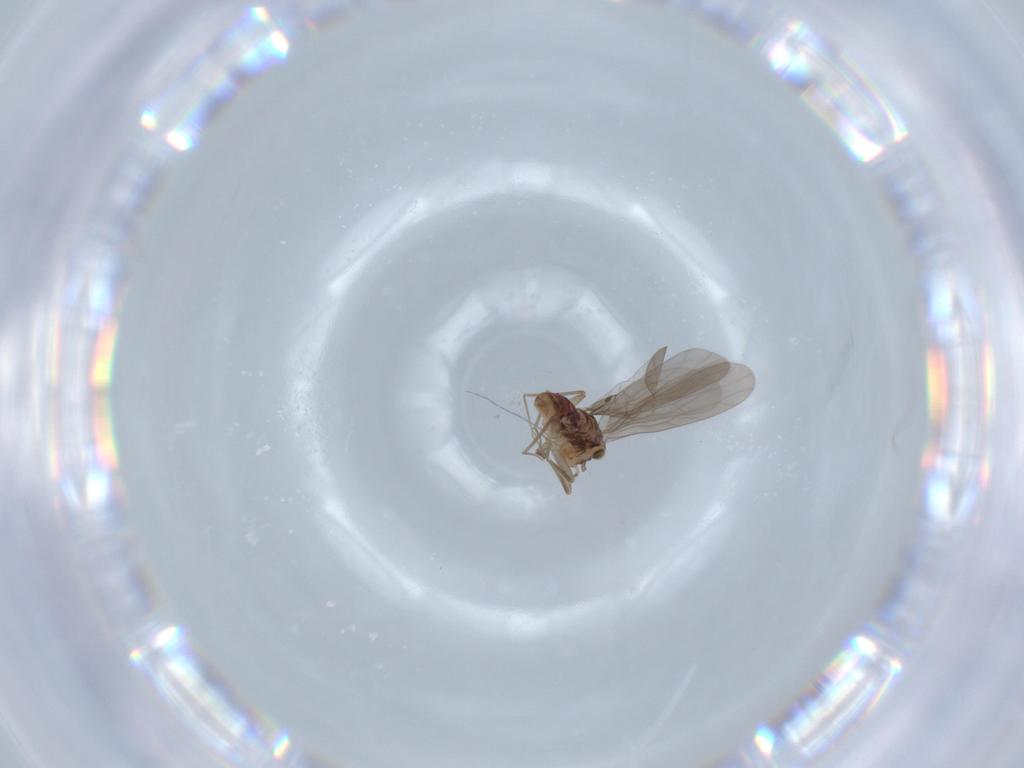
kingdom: Animalia
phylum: Arthropoda
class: Insecta
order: Psocodea
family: Lepidopsocidae
